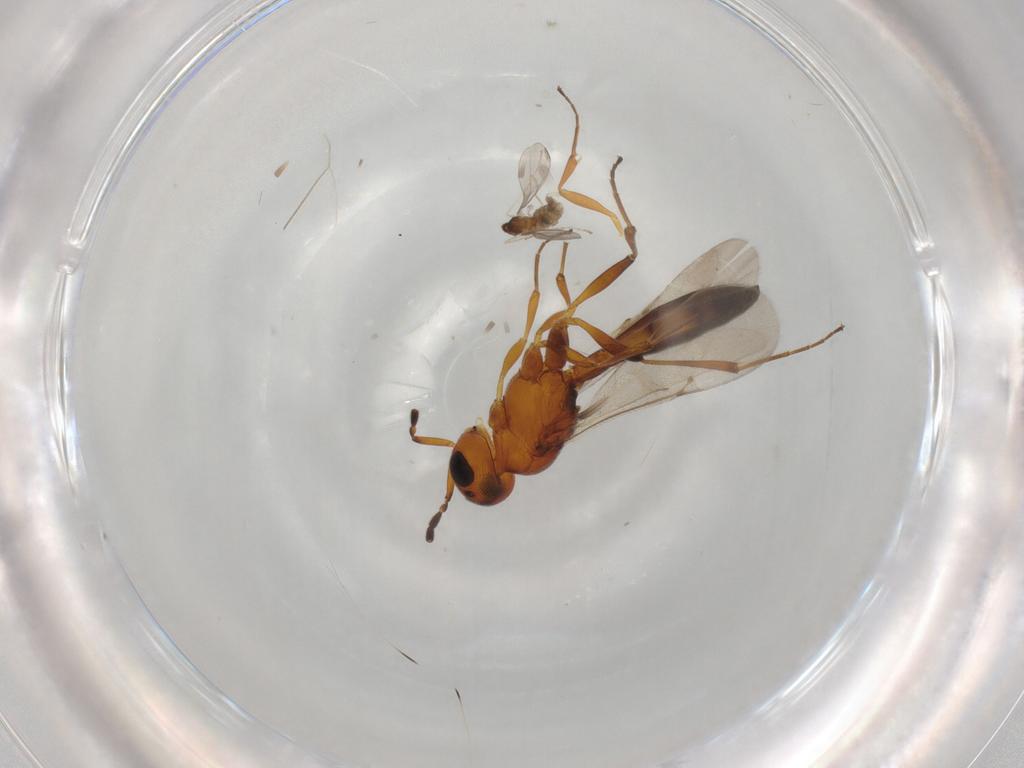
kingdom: Animalia
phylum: Arthropoda
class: Insecta
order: Hymenoptera
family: Scelionidae
